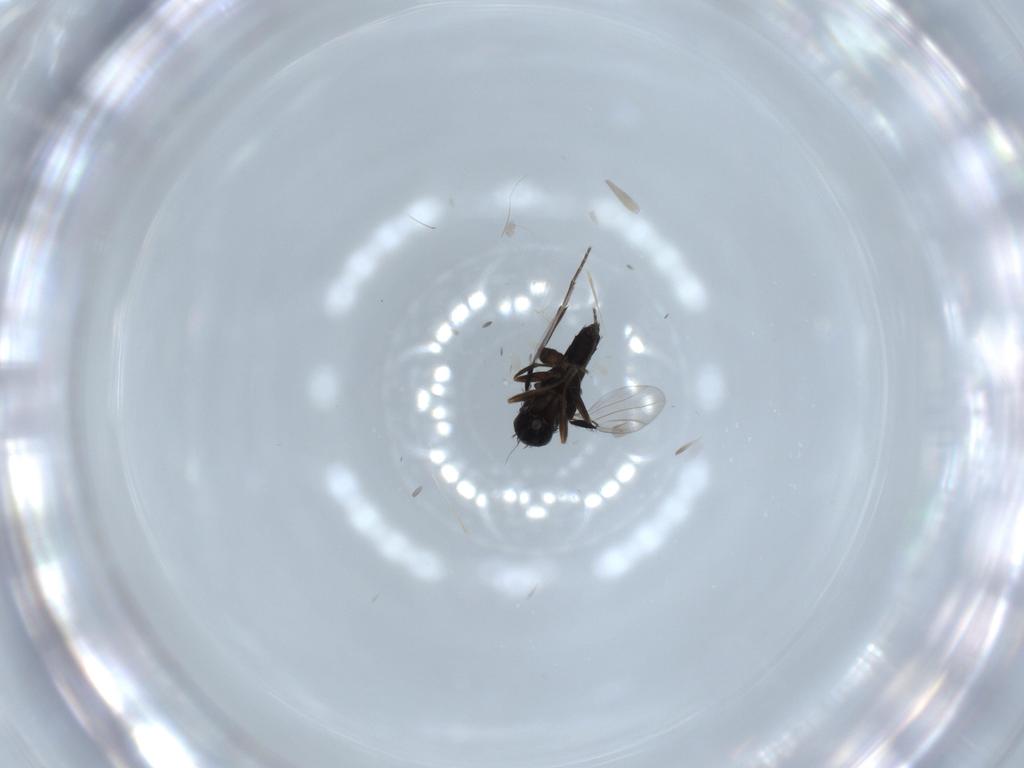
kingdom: Animalia
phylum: Arthropoda
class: Insecta
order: Diptera
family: Phoridae
